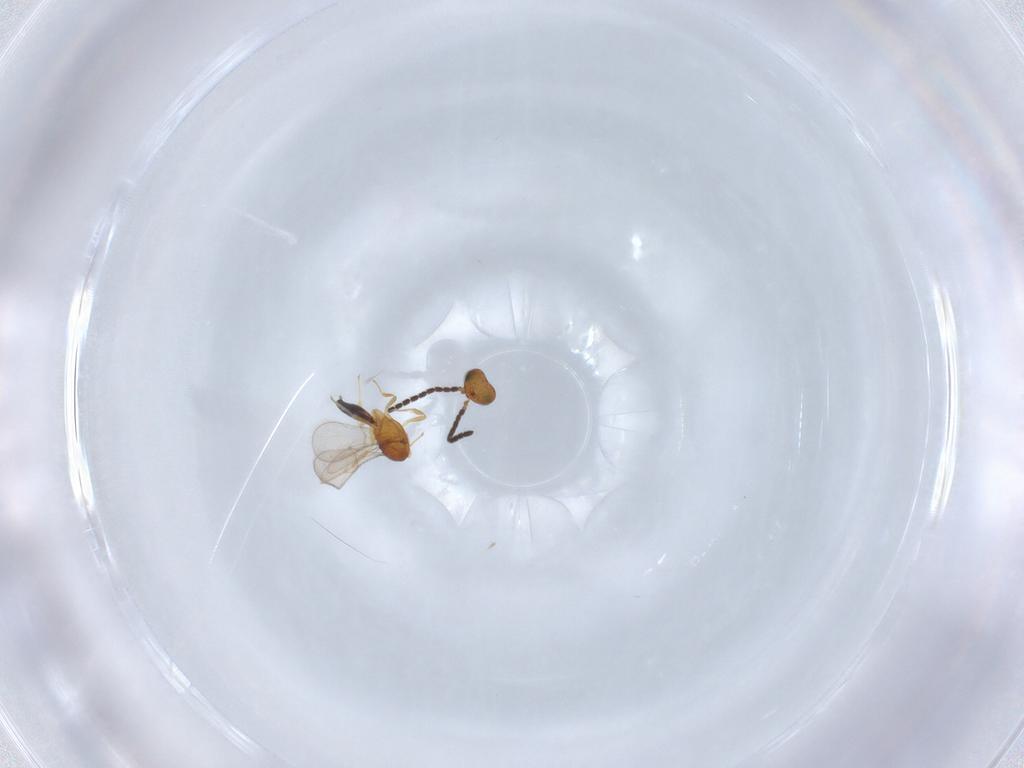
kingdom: Animalia
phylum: Arthropoda
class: Insecta
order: Hymenoptera
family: Scelionidae
